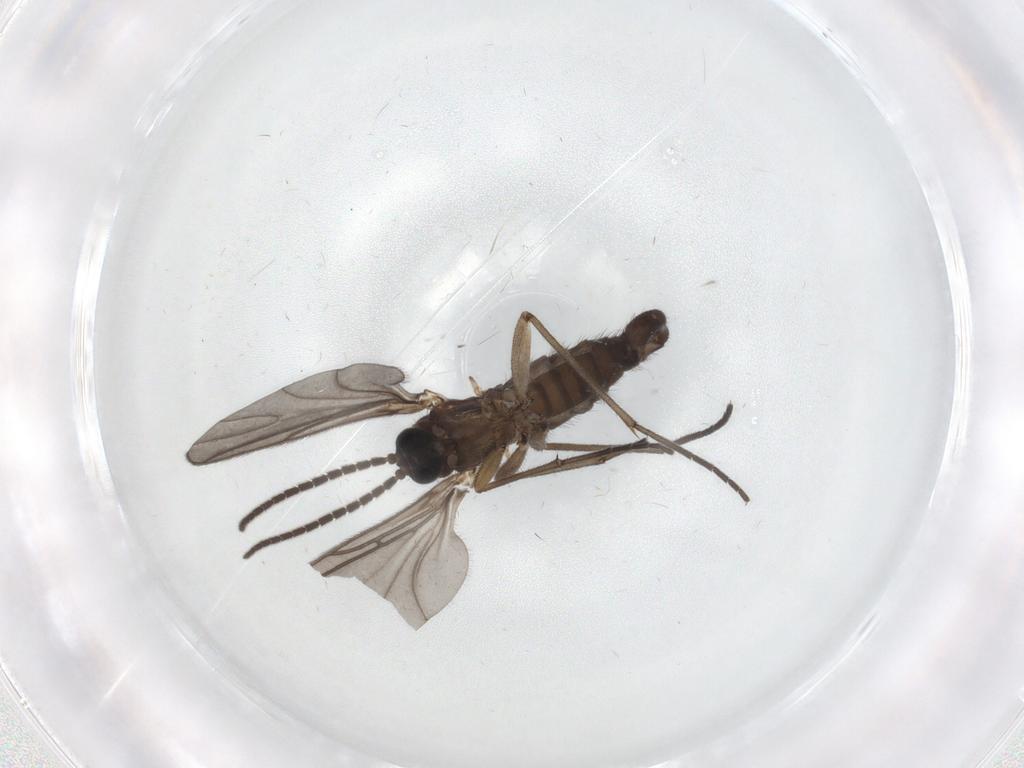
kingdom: Animalia
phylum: Arthropoda
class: Insecta
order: Diptera
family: Sciaridae
